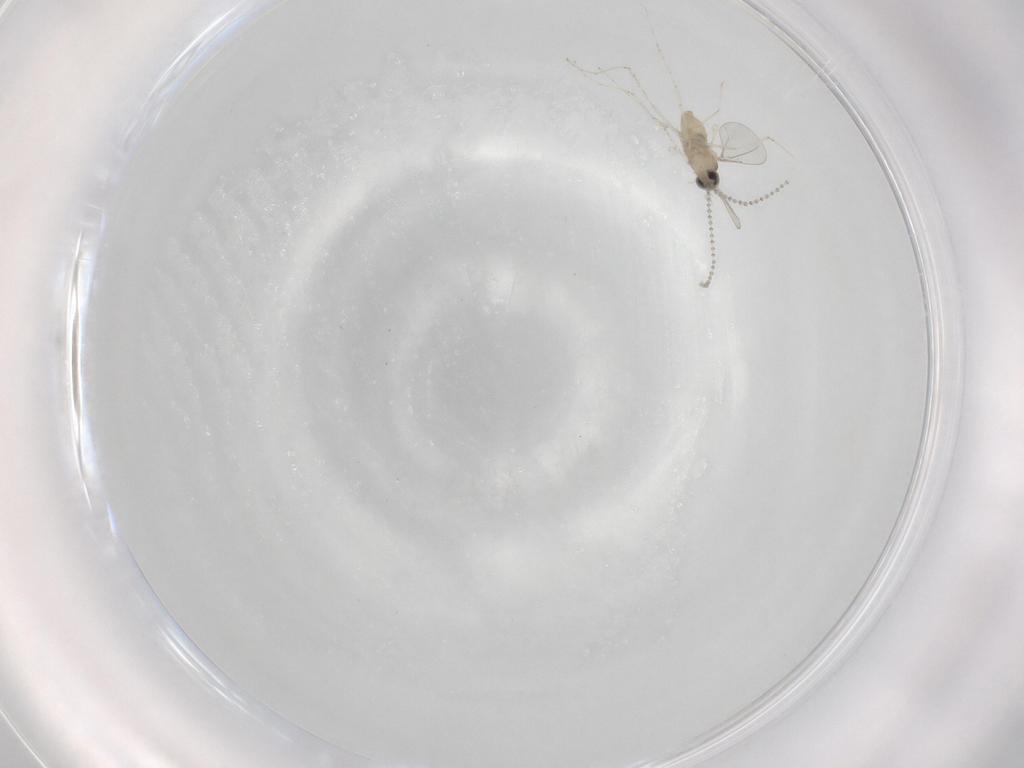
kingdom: Animalia
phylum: Arthropoda
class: Insecta
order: Diptera
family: Cecidomyiidae
